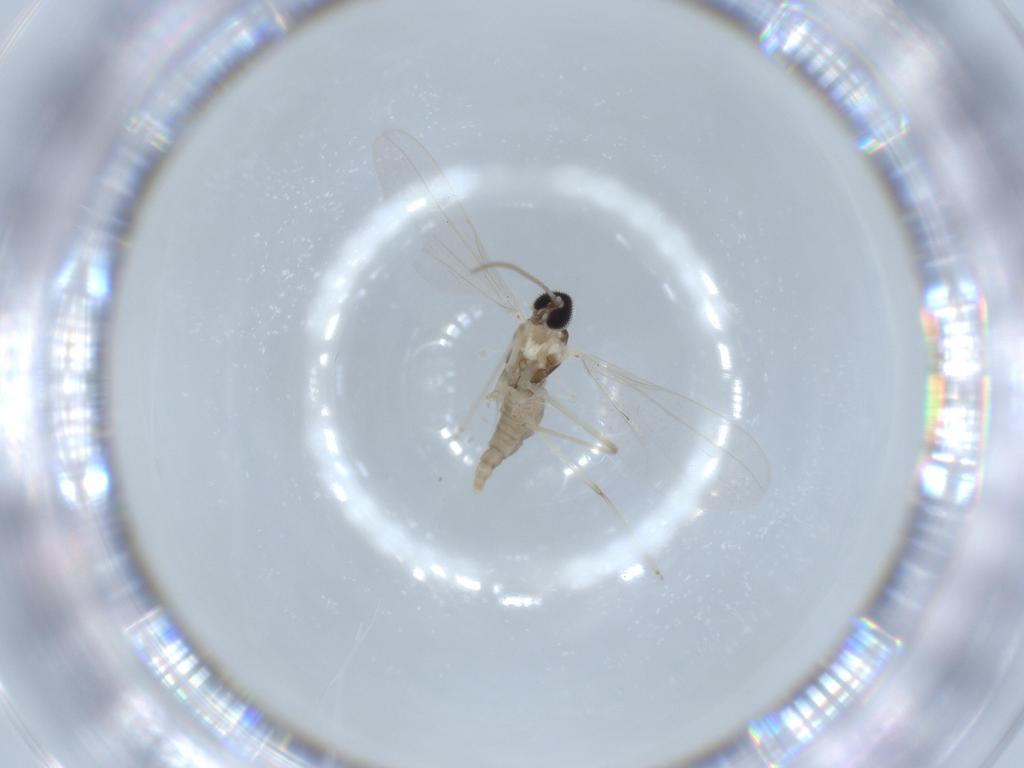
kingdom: Animalia
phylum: Arthropoda
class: Insecta
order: Diptera
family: Cecidomyiidae
